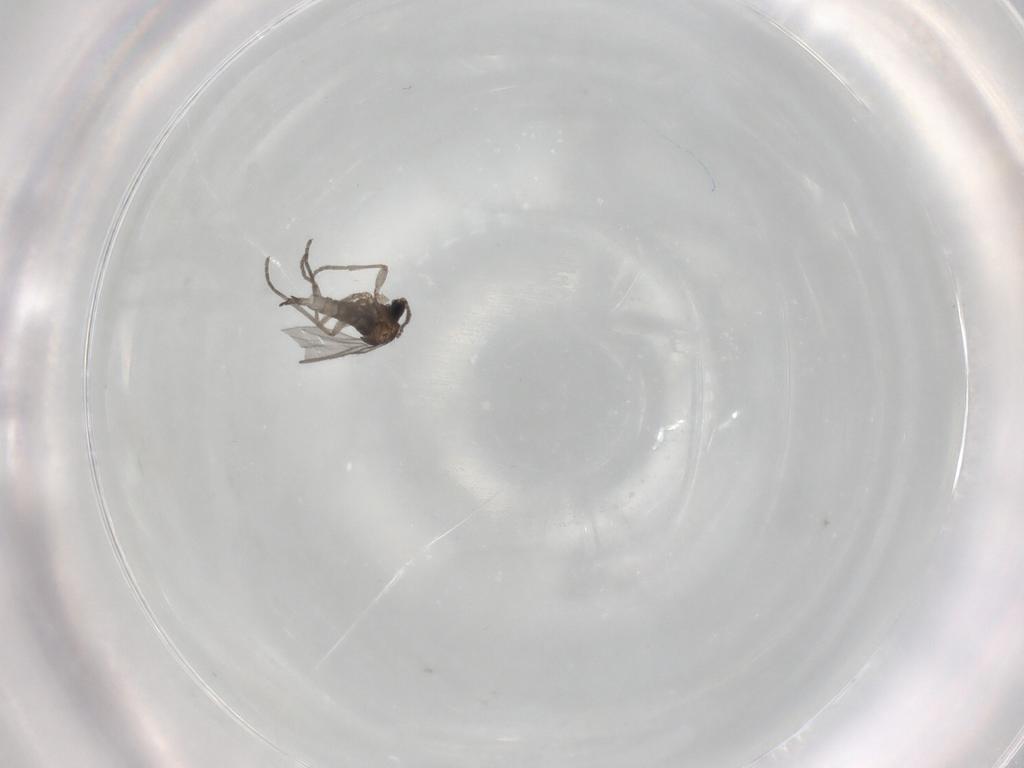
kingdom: Animalia
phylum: Arthropoda
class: Insecta
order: Diptera
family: Sciaridae
